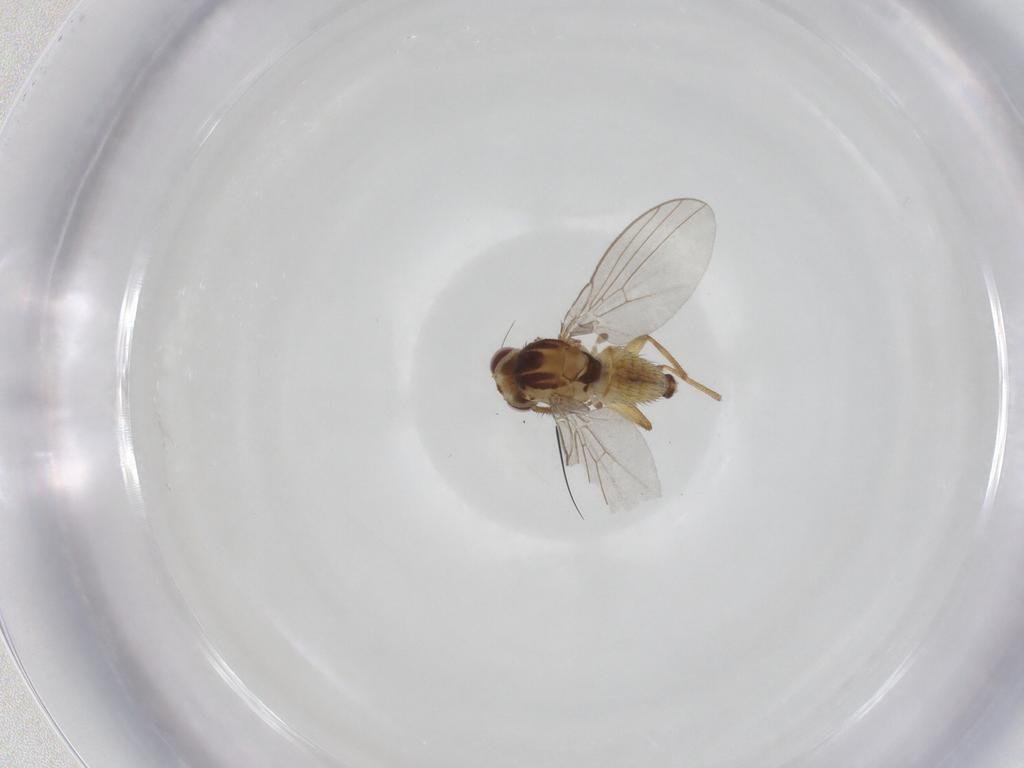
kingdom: Animalia
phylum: Arthropoda
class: Insecta
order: Diptera
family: Agromyzidae
